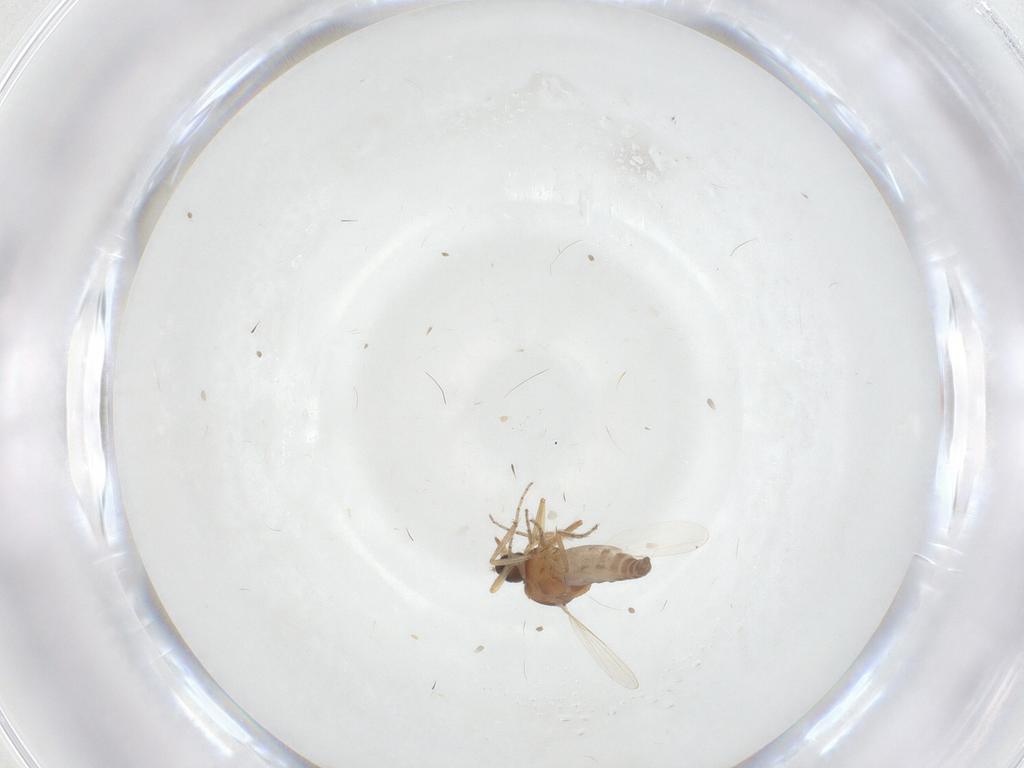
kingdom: Animalia
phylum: Arthropoda
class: Insecta
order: Diptera
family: Ceratopogonidae
